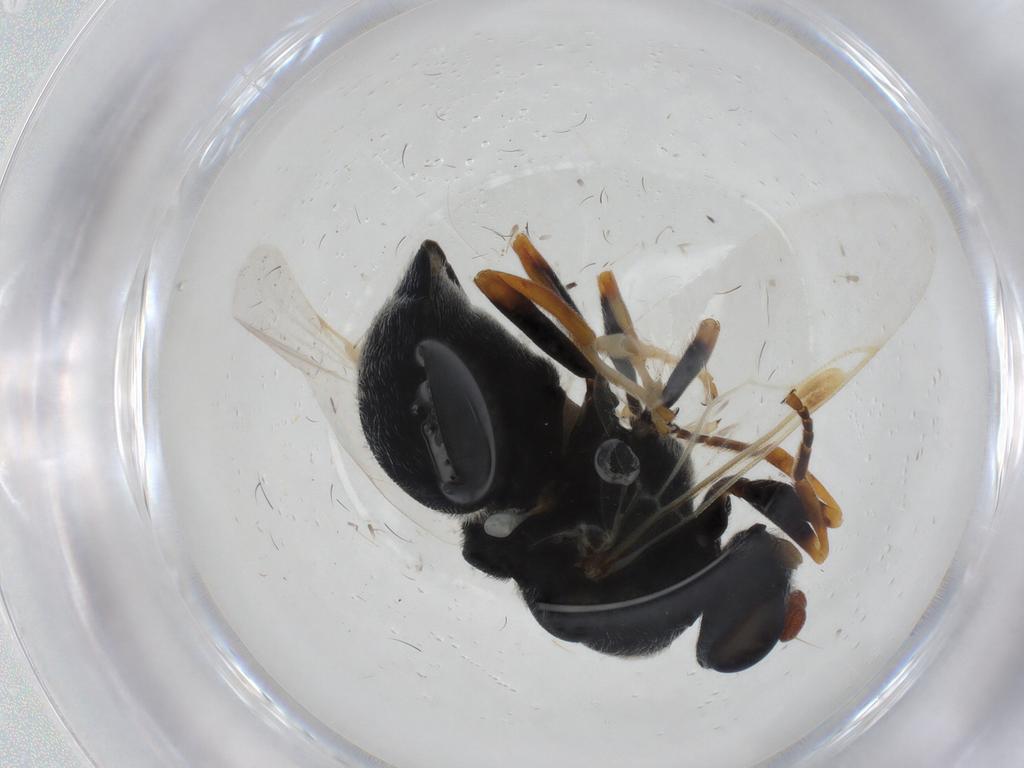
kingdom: Animalia
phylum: Arthropoda
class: Insecta
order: Diptera
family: Stratiomyidae
